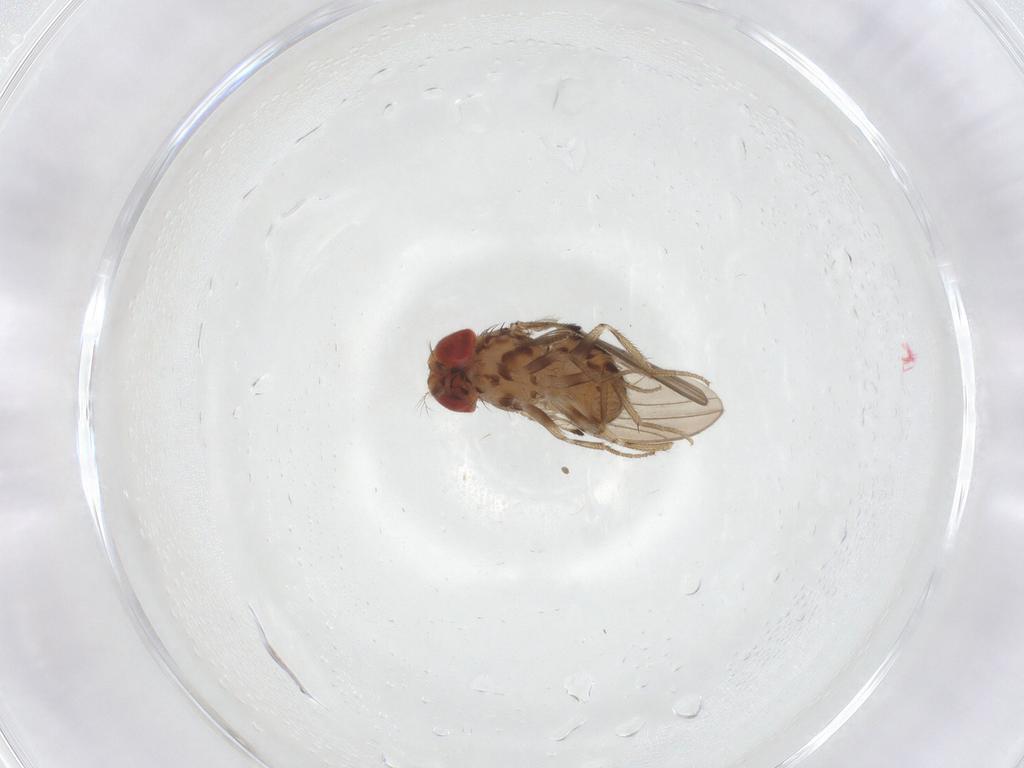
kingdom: Animalia
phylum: Arthropoda
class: Insecta
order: Diptera
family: Drosophilidae
